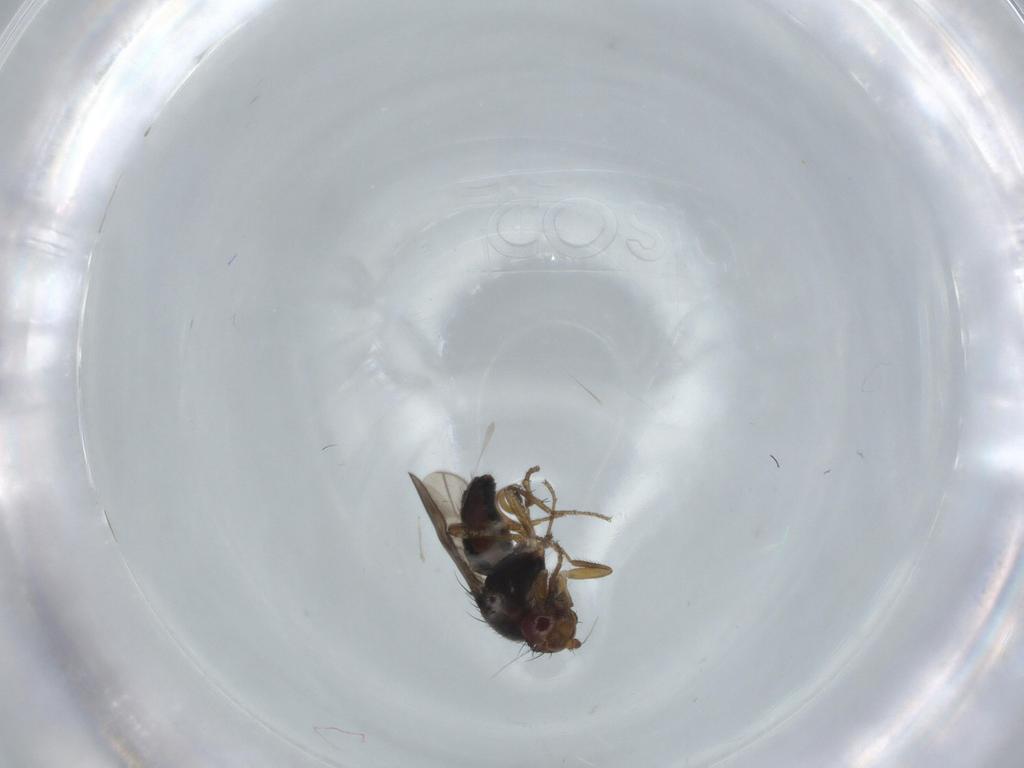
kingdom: Animalia
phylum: Arthropoda
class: Insecta
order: Diptera
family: Sphaeroceridae
